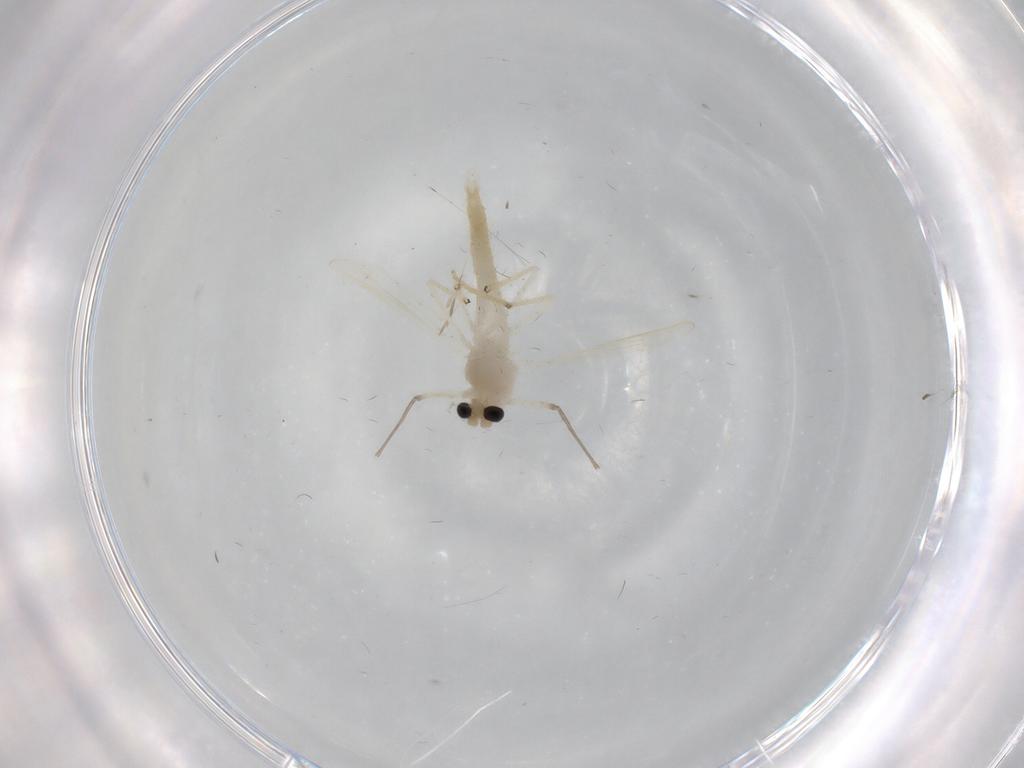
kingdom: Animalia
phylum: Arthropoda
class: Insecta
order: Diptera
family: Chironomidae
